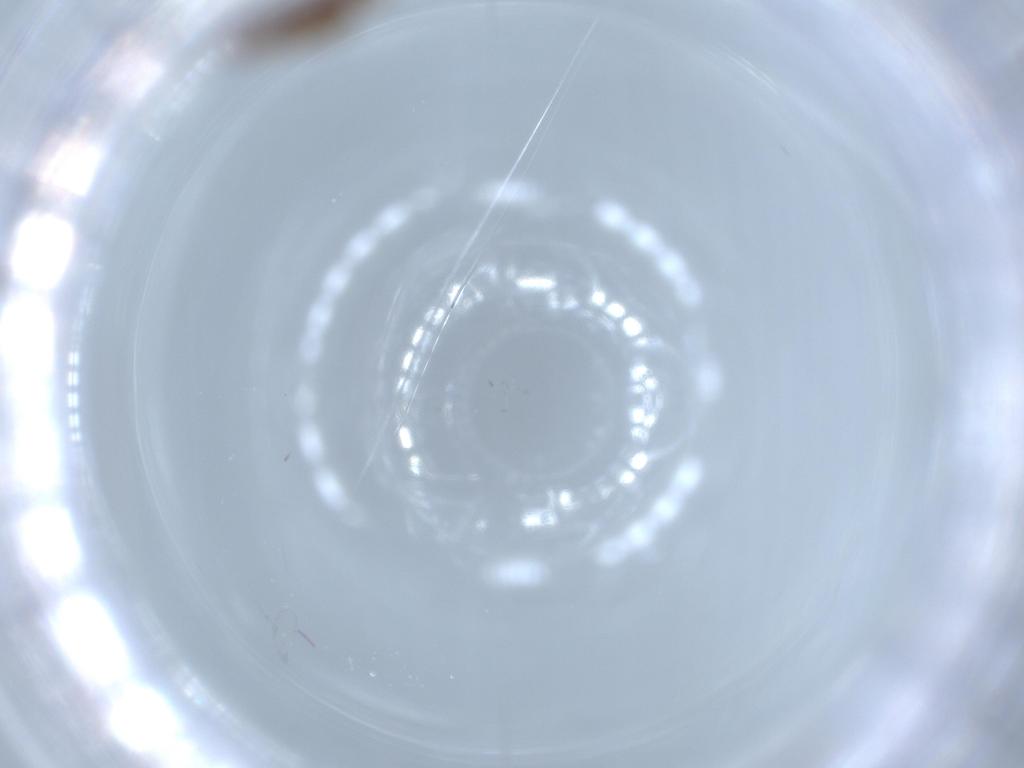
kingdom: Animalia
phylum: Arthropoda
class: Insecta
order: Psocodea
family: Lepidopsocidae
